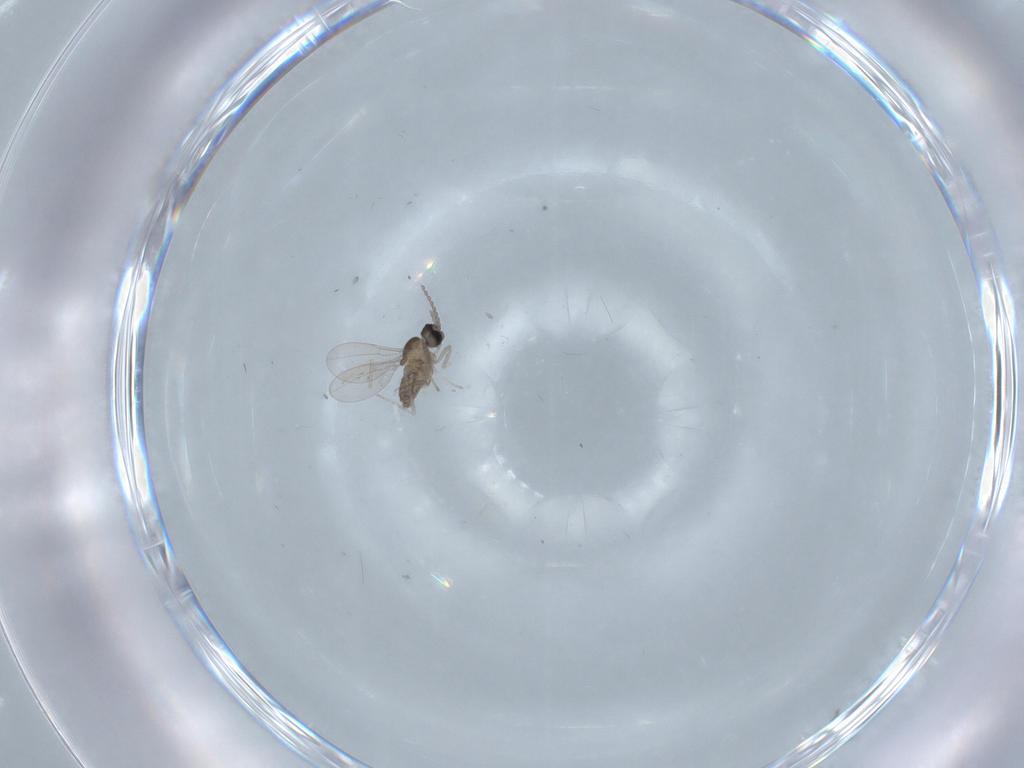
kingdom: Animalia
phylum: Arthropoda
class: Insecta
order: Diptera
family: Cecidomyiidae
